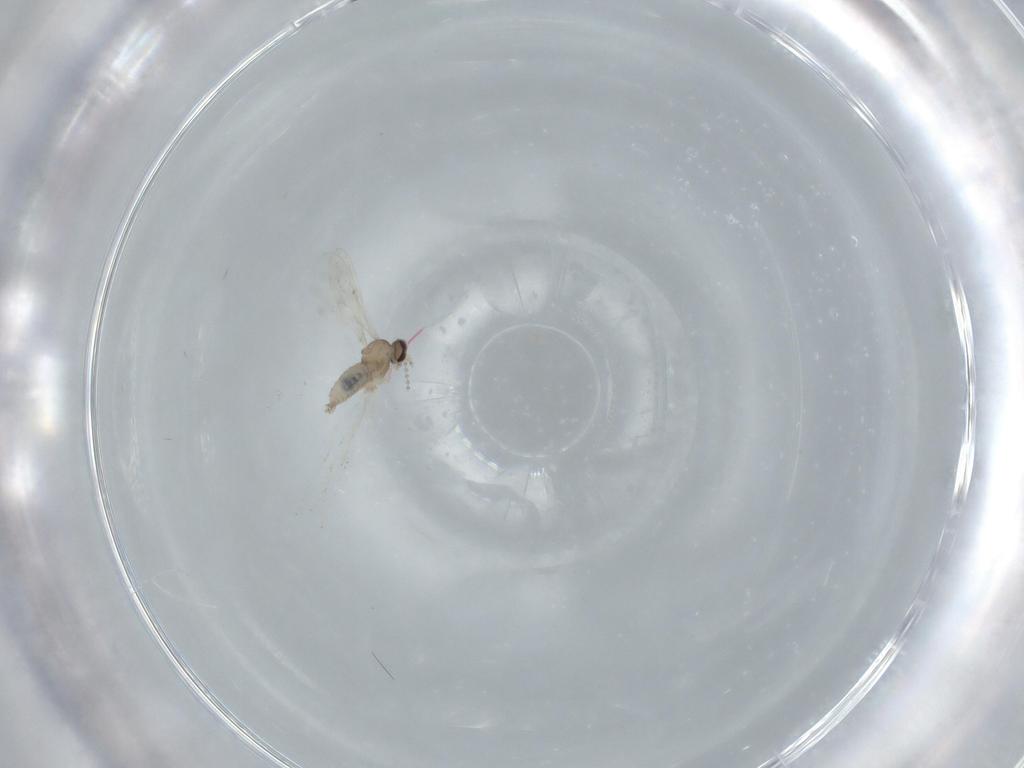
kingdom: Animalia
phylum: Arthropoda
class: Insecta
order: Diptera
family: Cecidomyiidae
